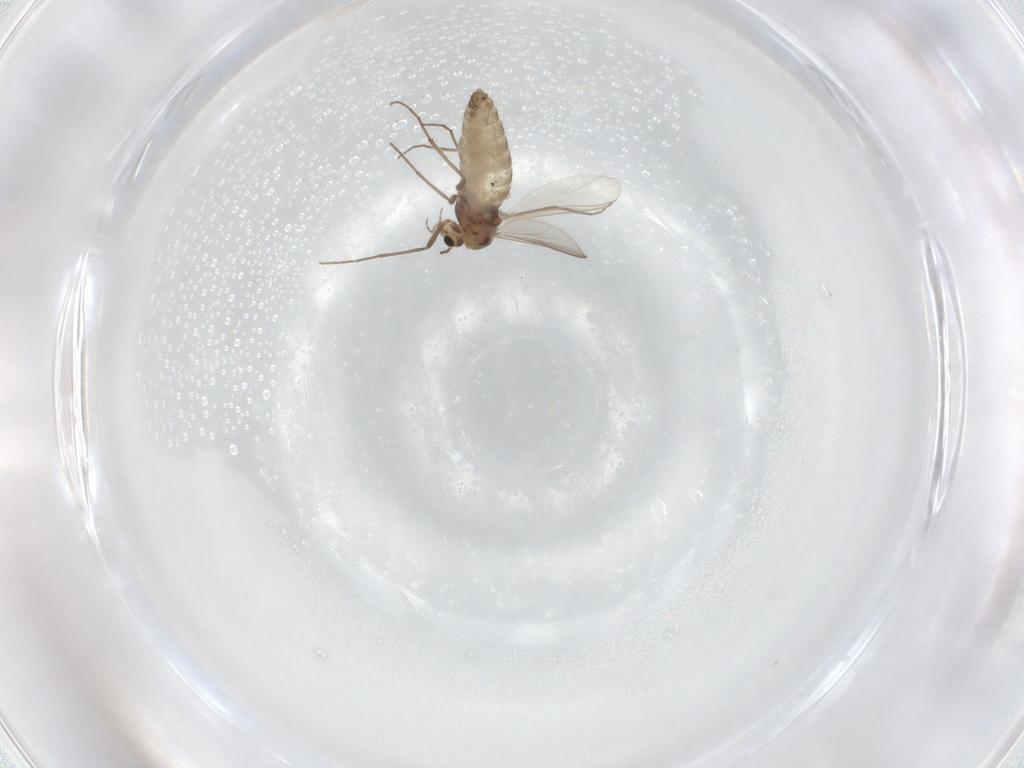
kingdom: Animalia
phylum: Arthropoda
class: Insecta
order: Diptera
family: Chironomidae
